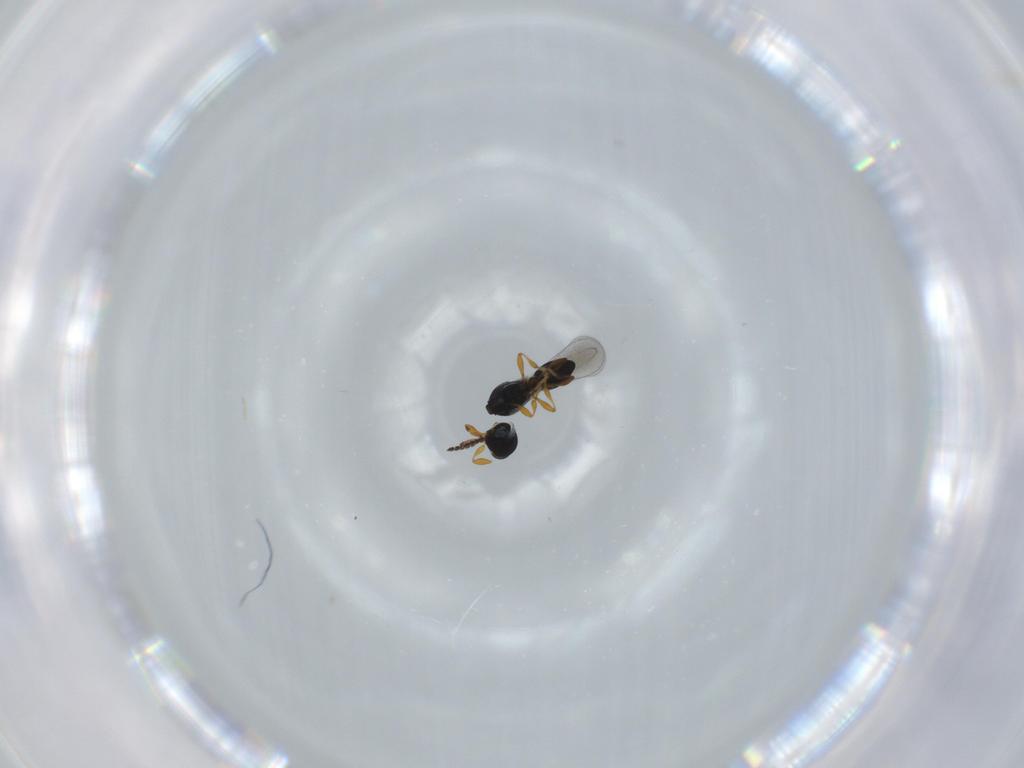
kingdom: Animalia
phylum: Arthropoda
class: Insecta
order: Hymenoptera
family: Platygastridae
